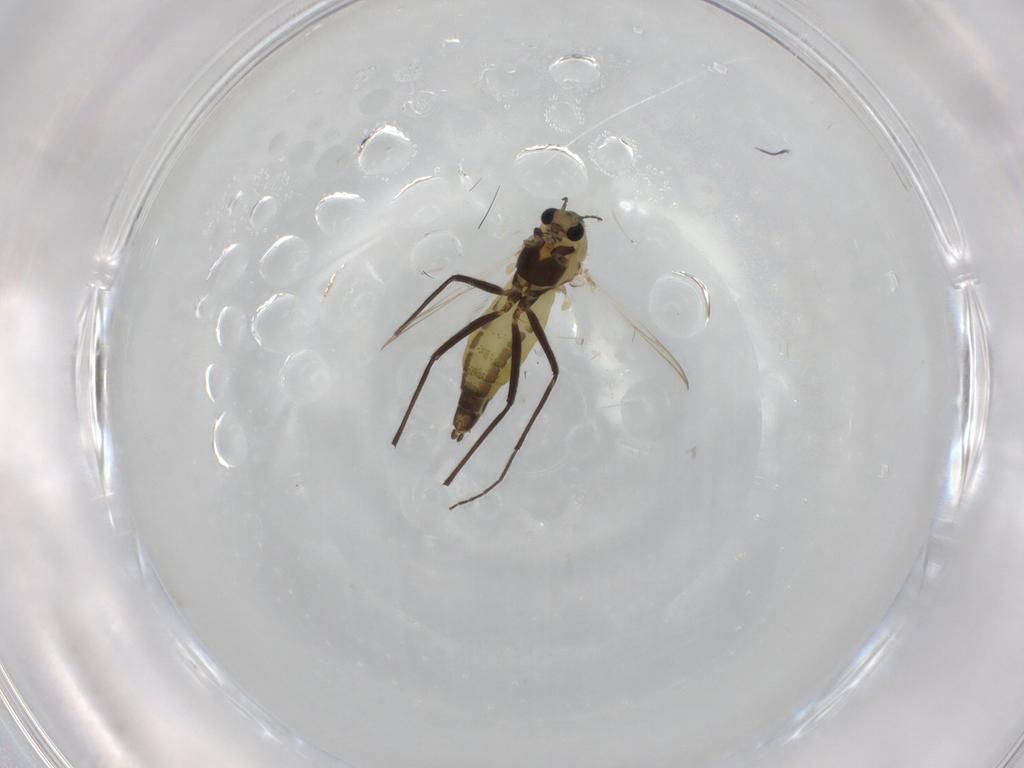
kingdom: Animalia
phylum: Arthropoda
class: Insecta
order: Diptera
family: Chironomidae
